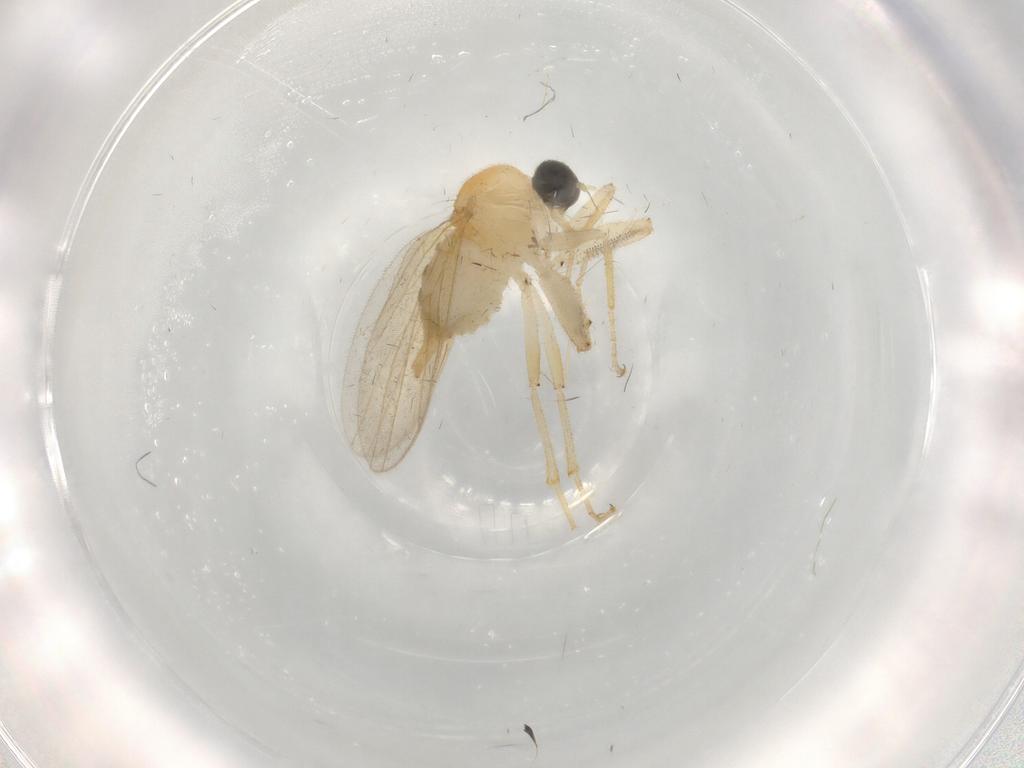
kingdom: Animalia
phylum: Arthropoda
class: Insecta
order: Diptera
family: Cecidomyiidae
